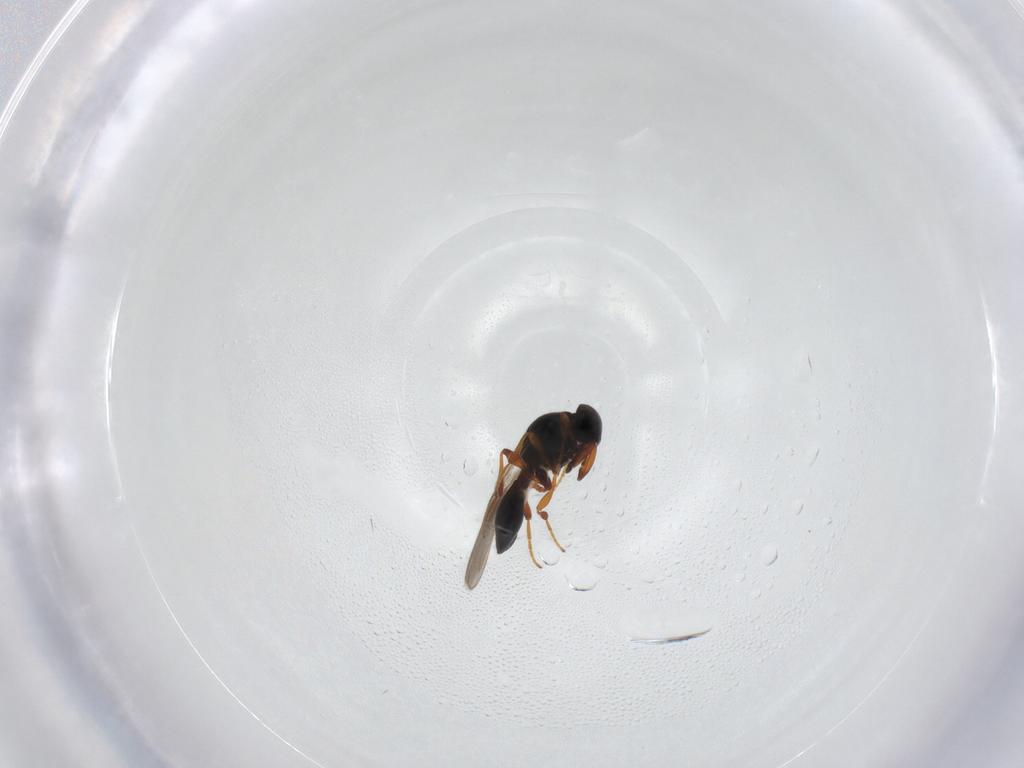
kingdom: Animalia
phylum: Arthropoda
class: Insecta
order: Hymenoptera
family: Platygastridae
